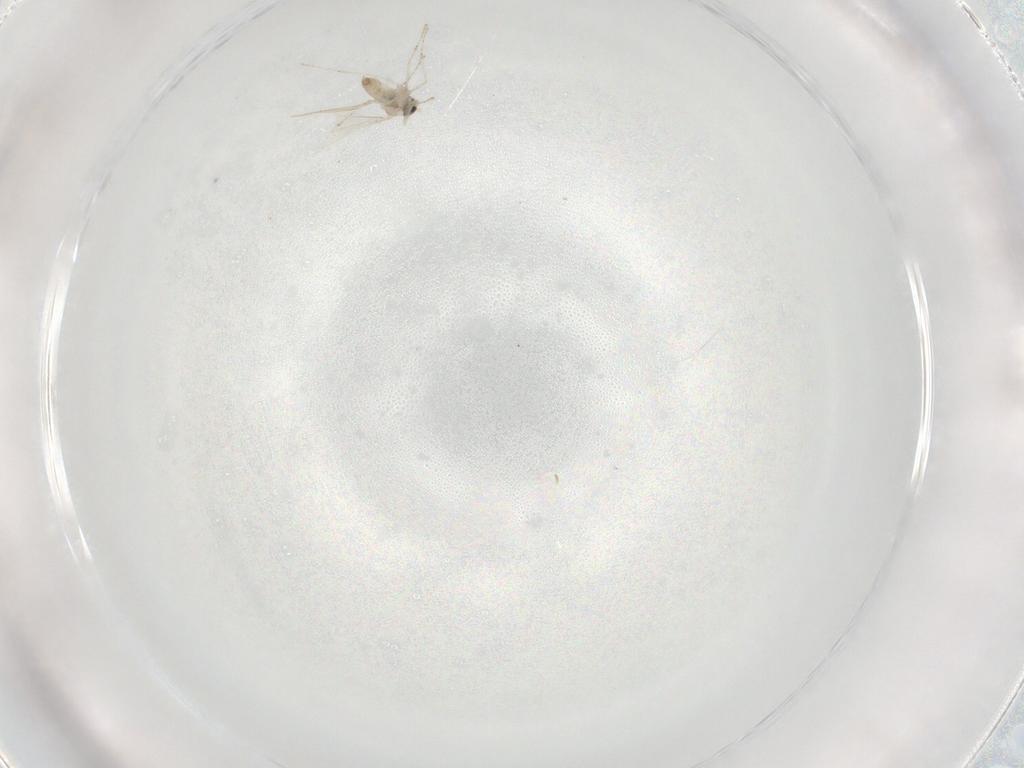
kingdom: Animalia
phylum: Arthropoda
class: Insecta
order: Diptera
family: Cecidomyiidae
